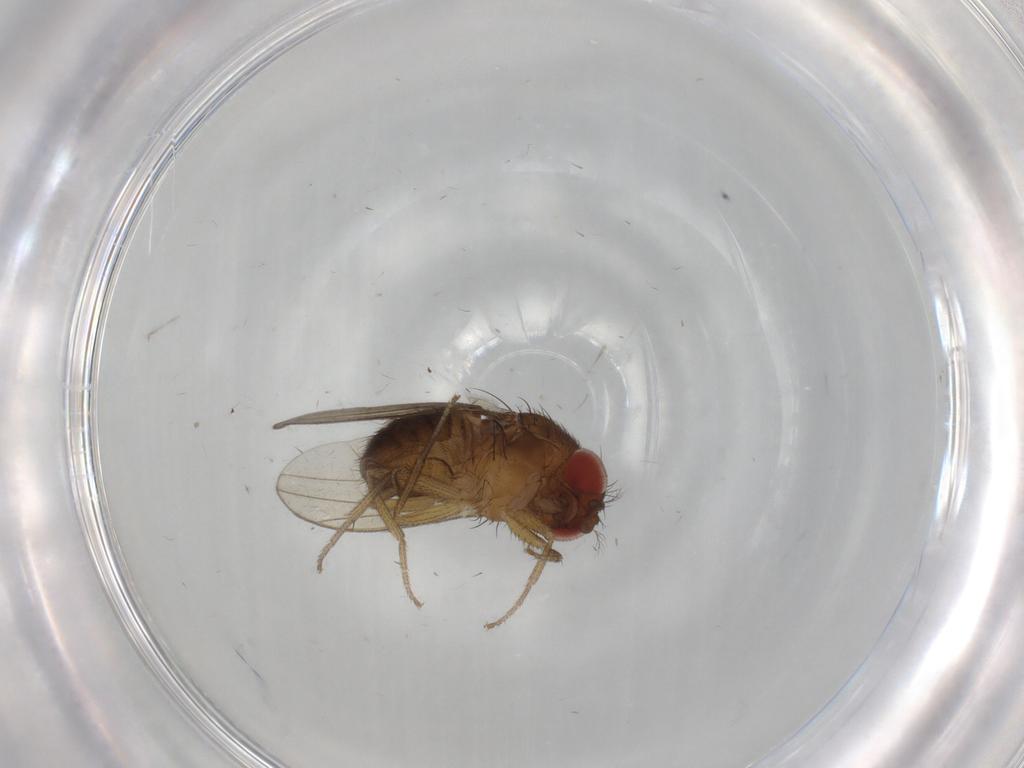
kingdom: Animalia
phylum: Arthropoda
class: Insecta
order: Diptera
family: Drosophilidae
